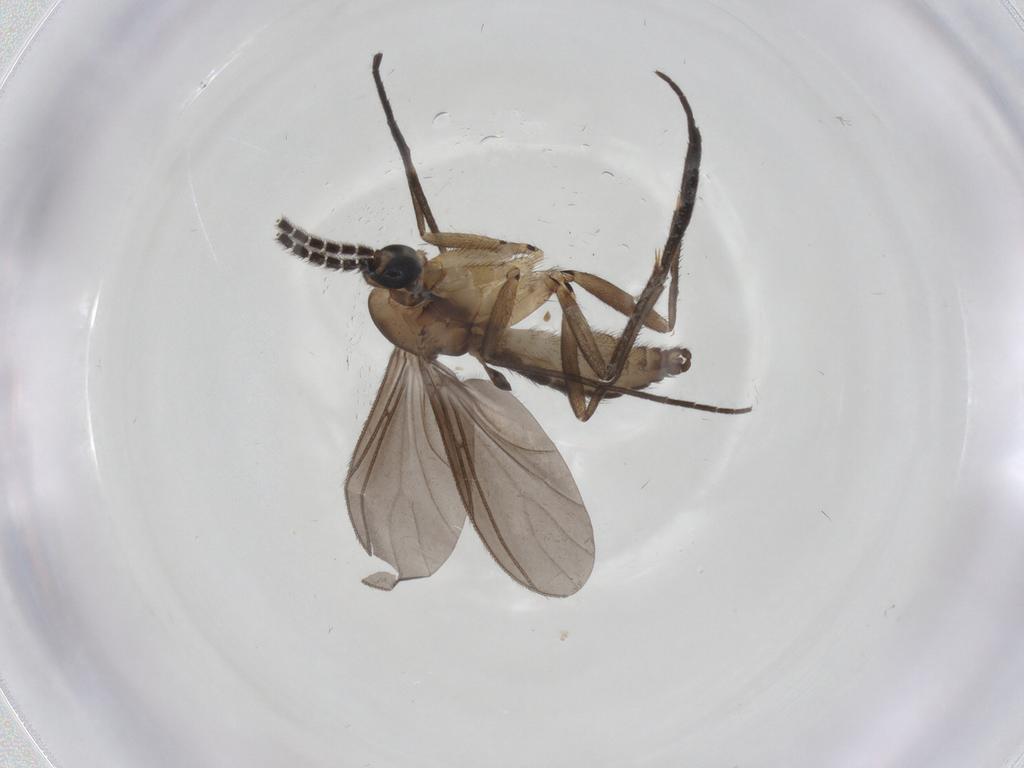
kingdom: Animalia
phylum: Arthropoda
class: Insecta
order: Diptera
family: Sciaridae
